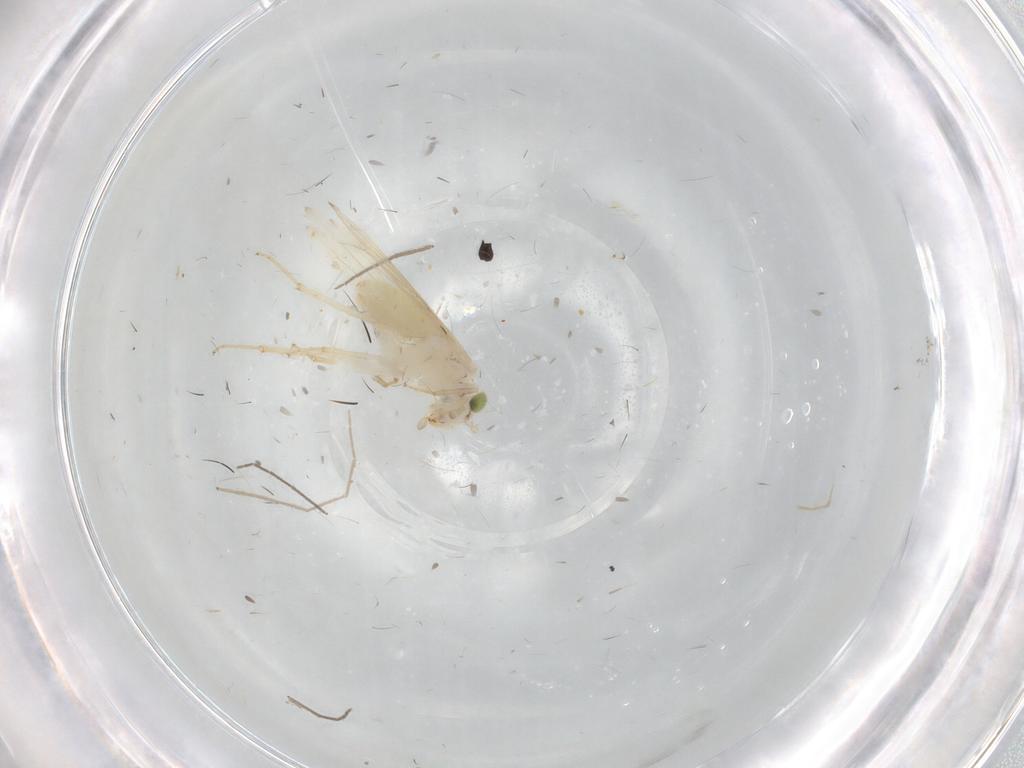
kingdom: Animalia
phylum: Arthropoda
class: Insecta
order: Psocodea
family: Lepidopsocidae
